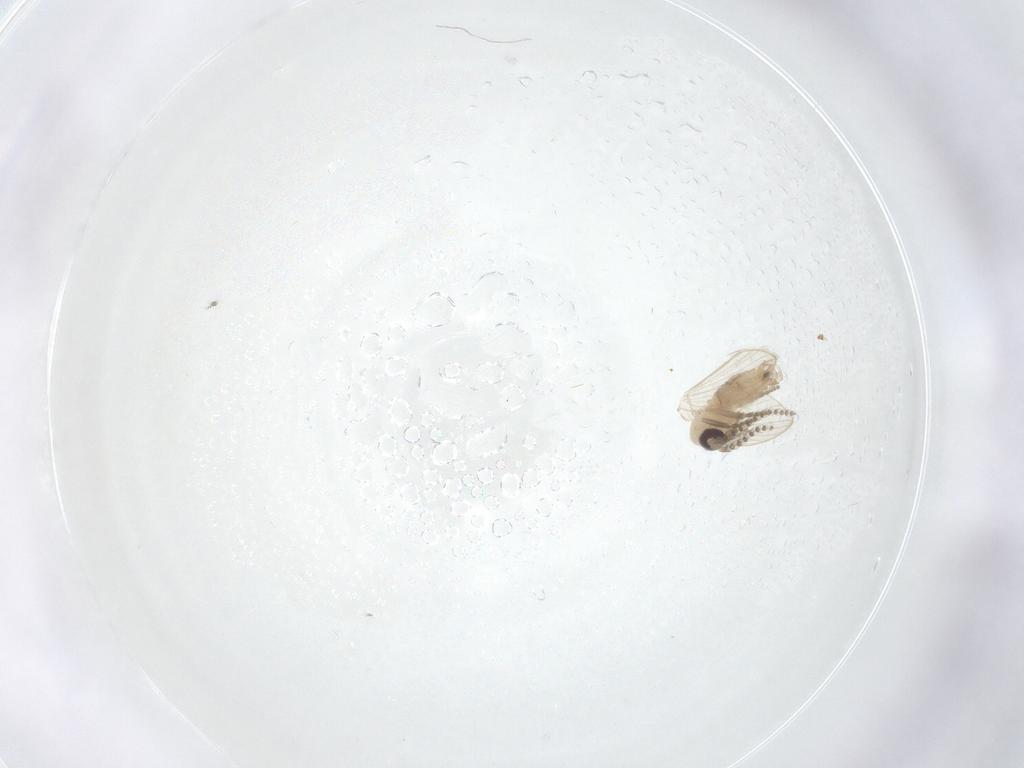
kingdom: Animalia
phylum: Arthropoda
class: Insecta
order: Diptera
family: Psychodidae
